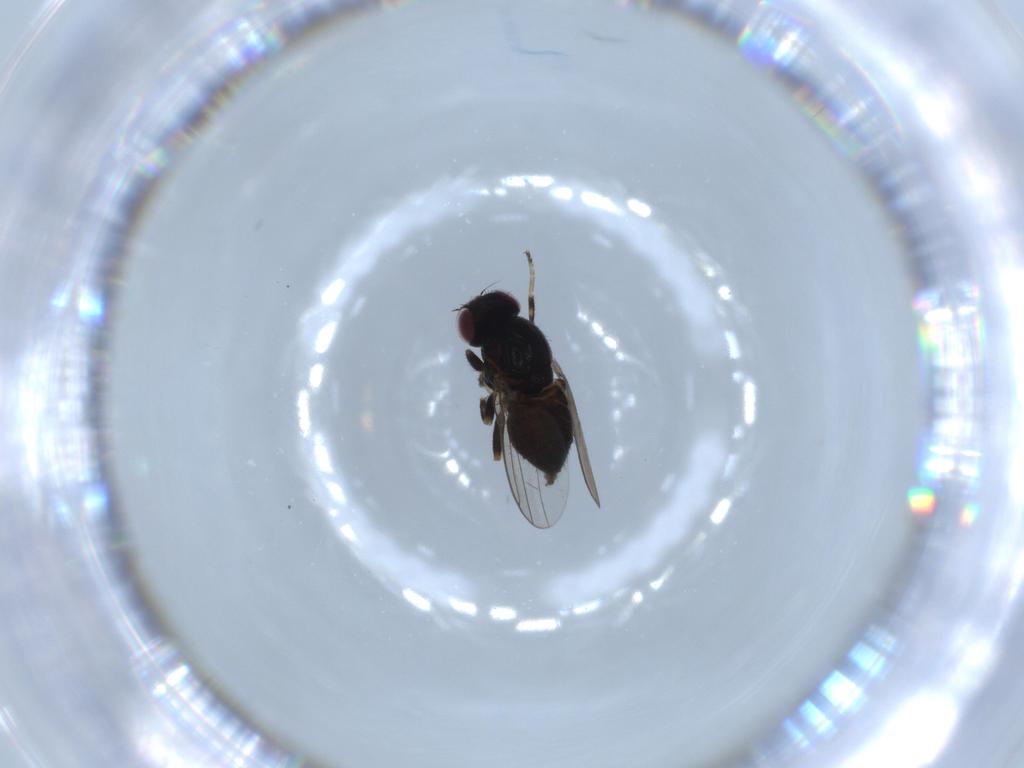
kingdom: Animalia
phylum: Arthropoda
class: Insecta
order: Diptera
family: Chloropidae
